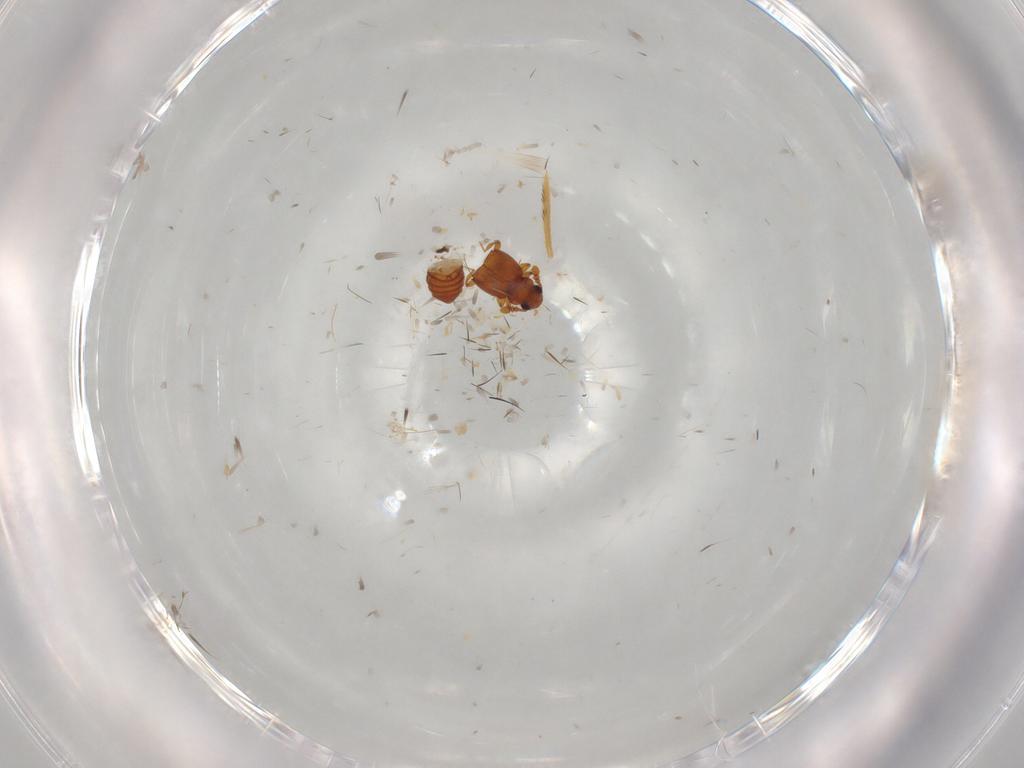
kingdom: Animalia
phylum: Arthropoda
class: Insecta
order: Coleoptera
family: Staphylinidae
